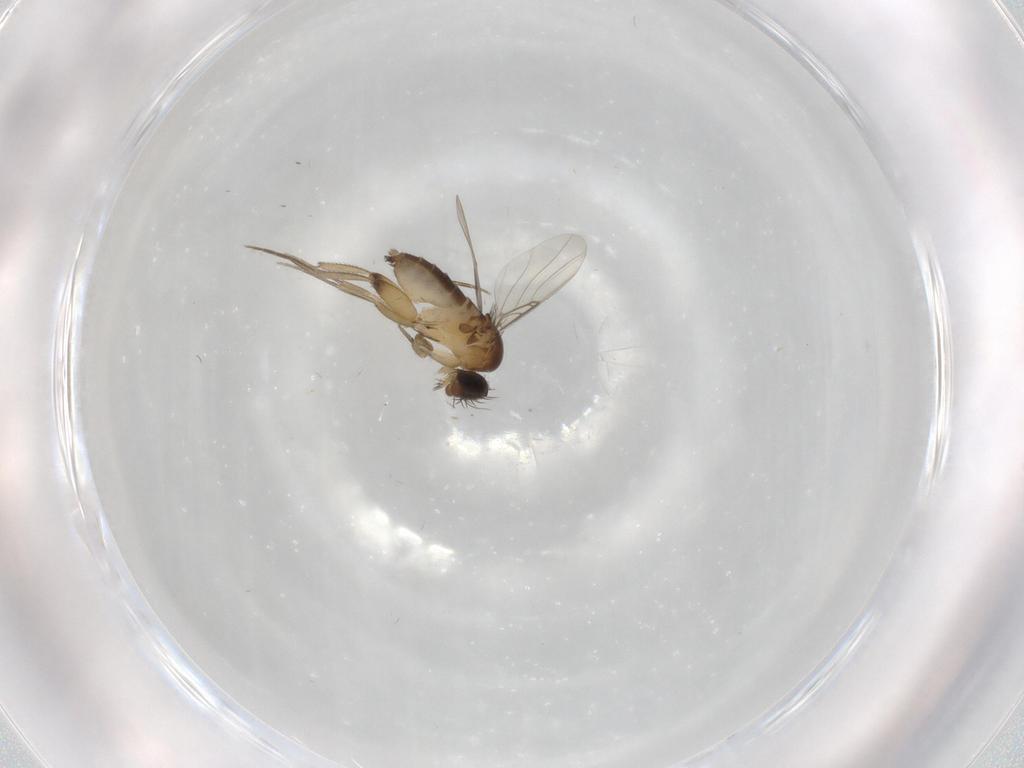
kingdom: Animalia
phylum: Arthropoda
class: Insecta
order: Diptera
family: Phoridae
